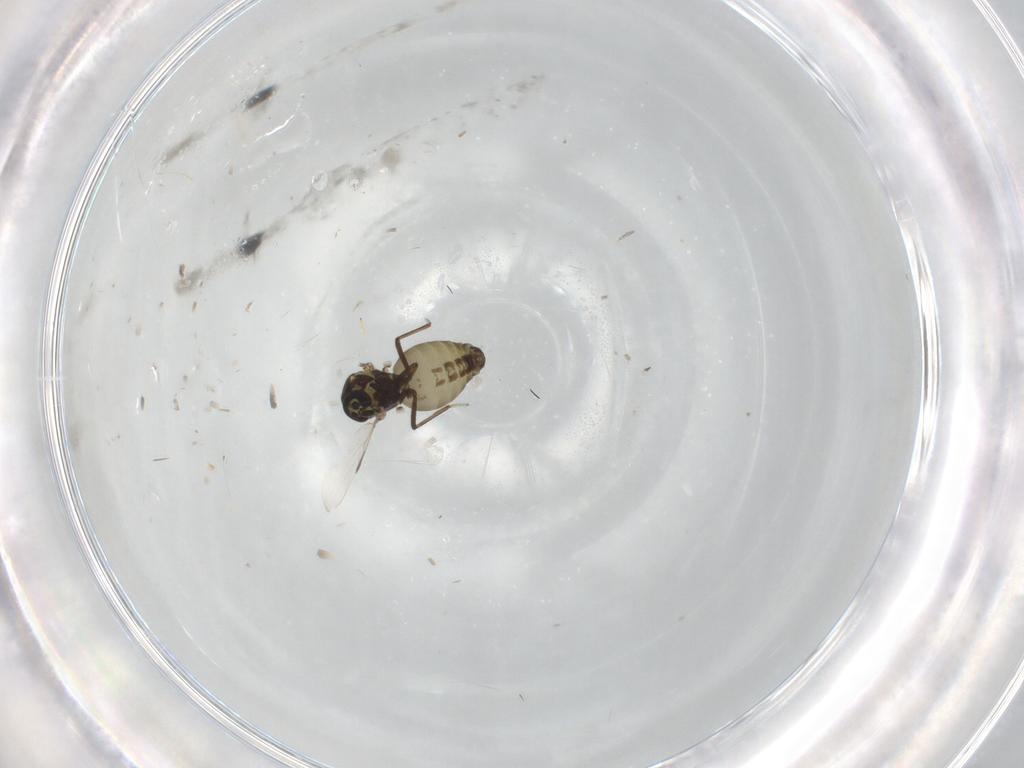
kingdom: Animalia
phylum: Arthropoda
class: Insecta
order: Diptera
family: Ceratopogonidae
